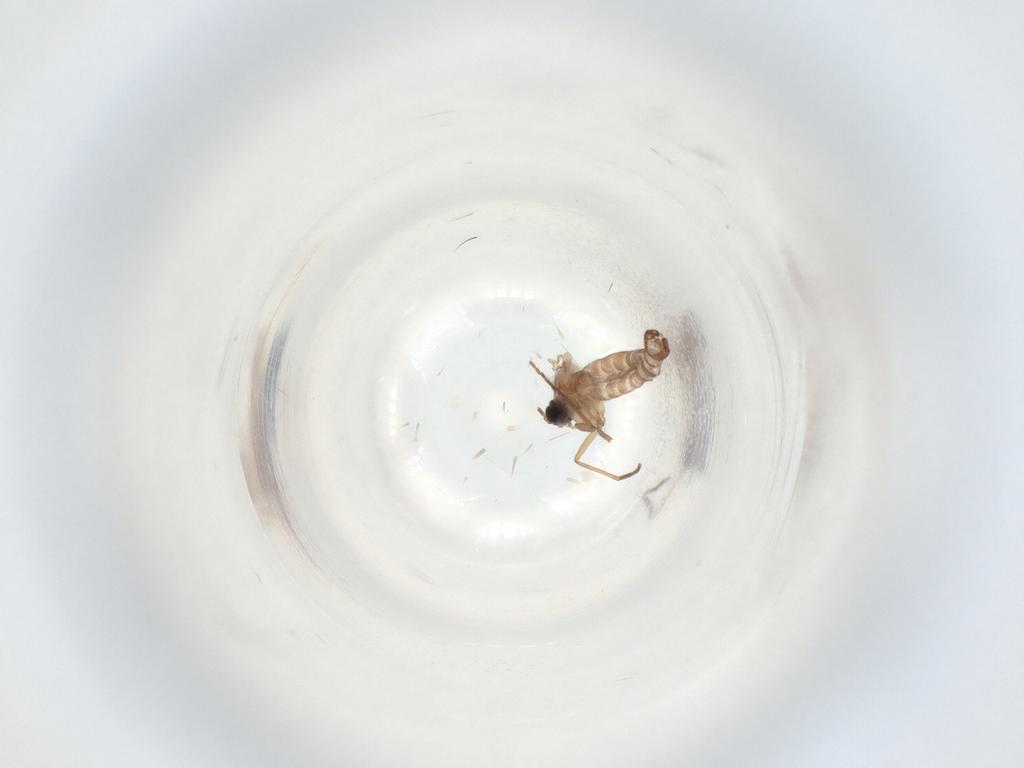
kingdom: Animalia
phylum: Arthropoda
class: Insecta
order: Diptera
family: Sciaridae
